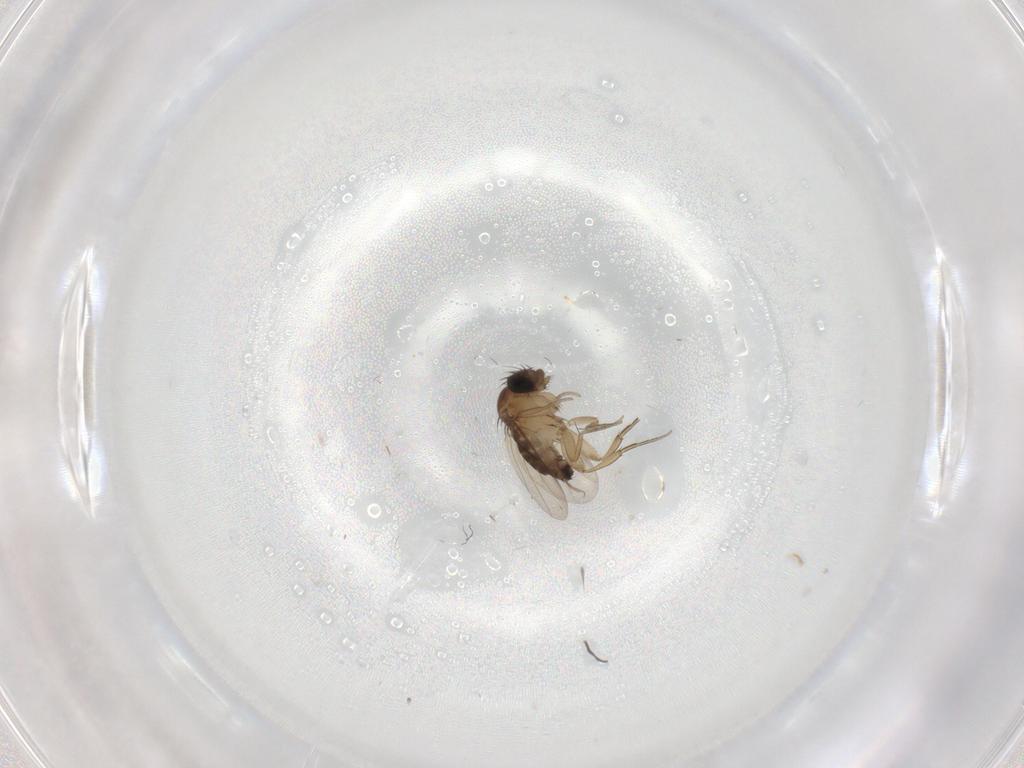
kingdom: Animalia
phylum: Arthropoda
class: Insecta
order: Diptera
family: Phoridae
